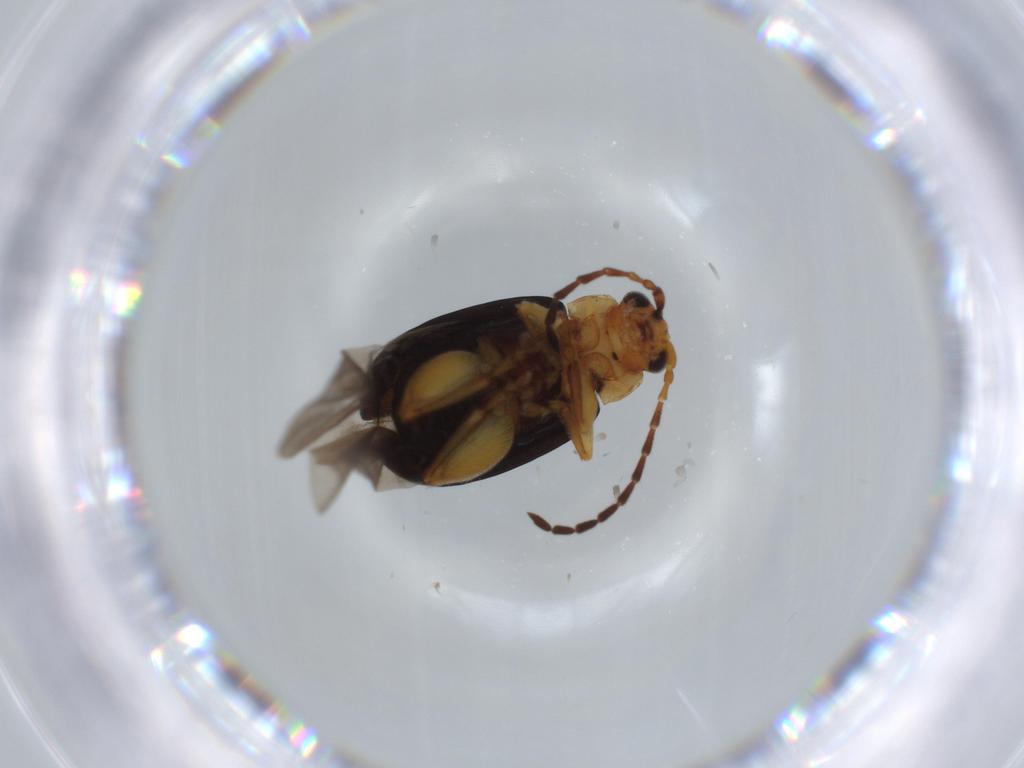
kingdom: Animalia
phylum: Arthropoda
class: Insecta
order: Coleoptera
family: Chrysomelidae
